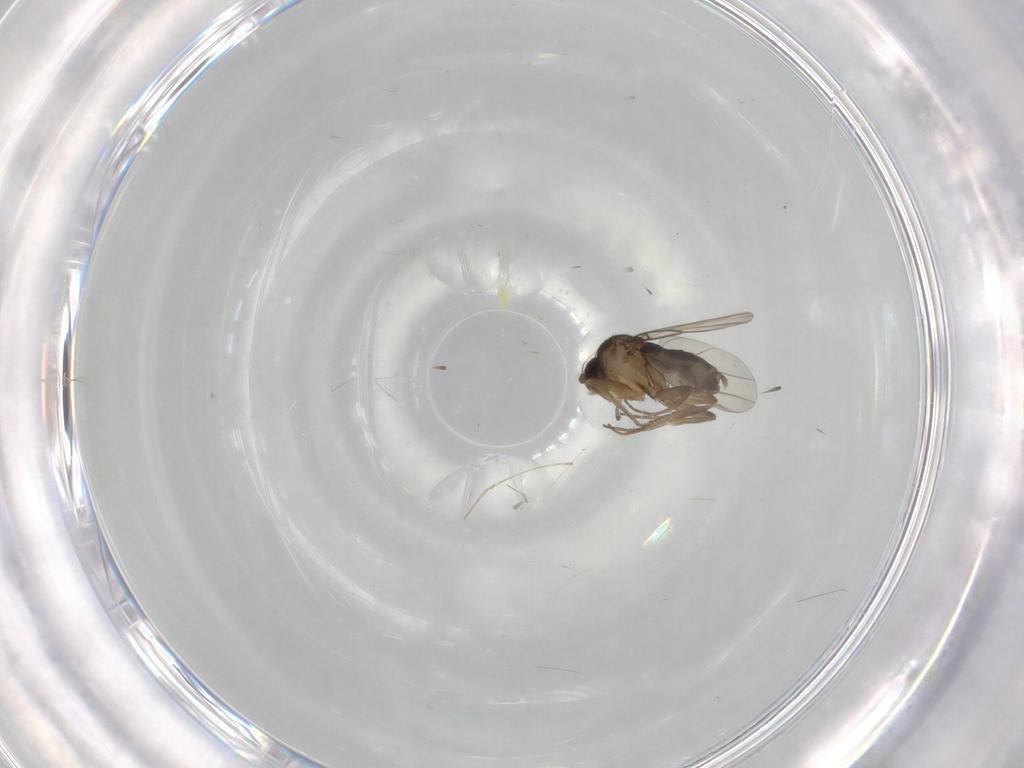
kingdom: Animalia
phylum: Arthropoda
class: Insecta
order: Diptera
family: Phoridae
